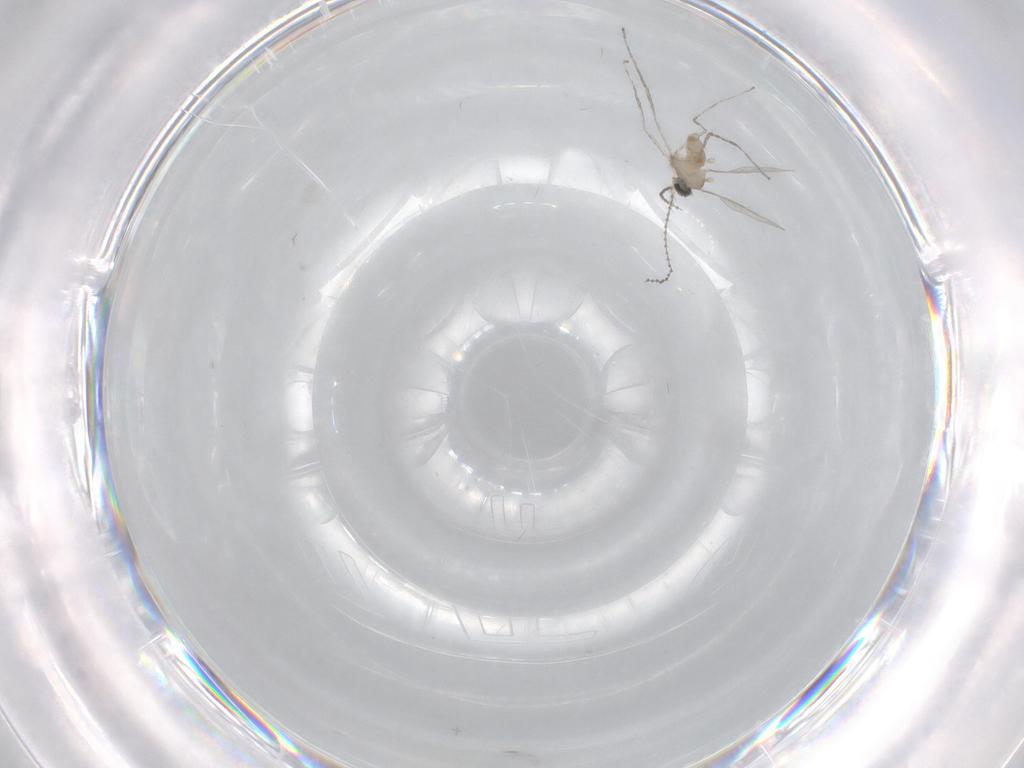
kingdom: Animalia
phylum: Arthropoda
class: Insecta
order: Diptera
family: Cecidomyiidae
